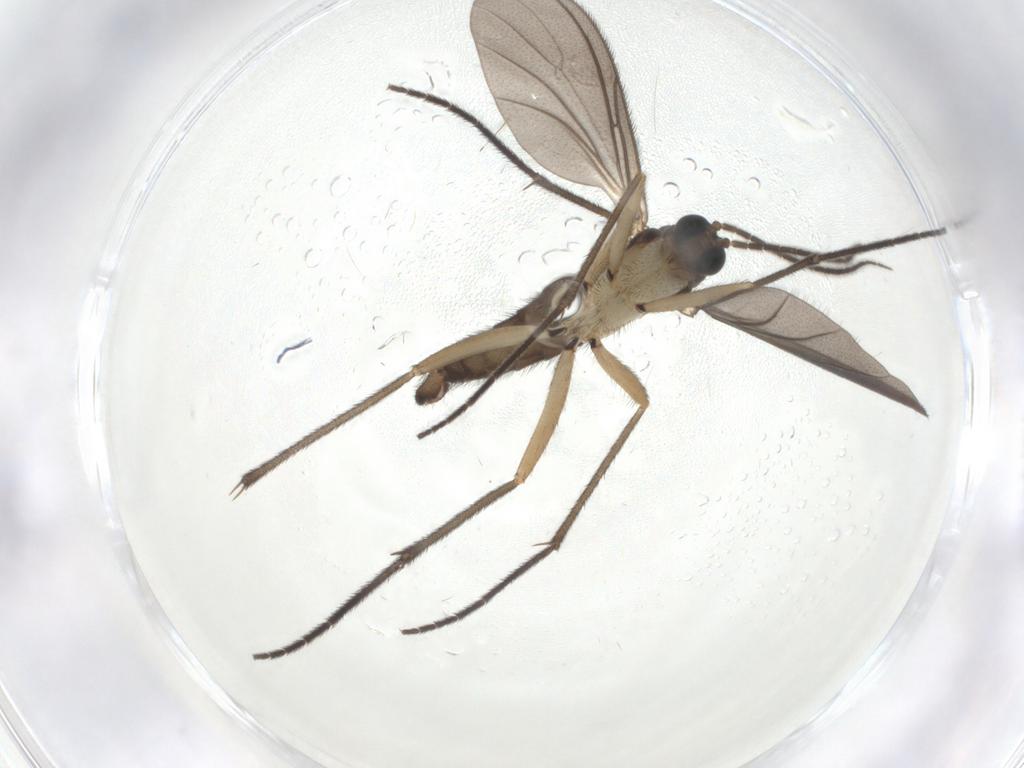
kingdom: Animalia
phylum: Arthropoda
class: Insecta
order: Diptera
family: Sciaridae
